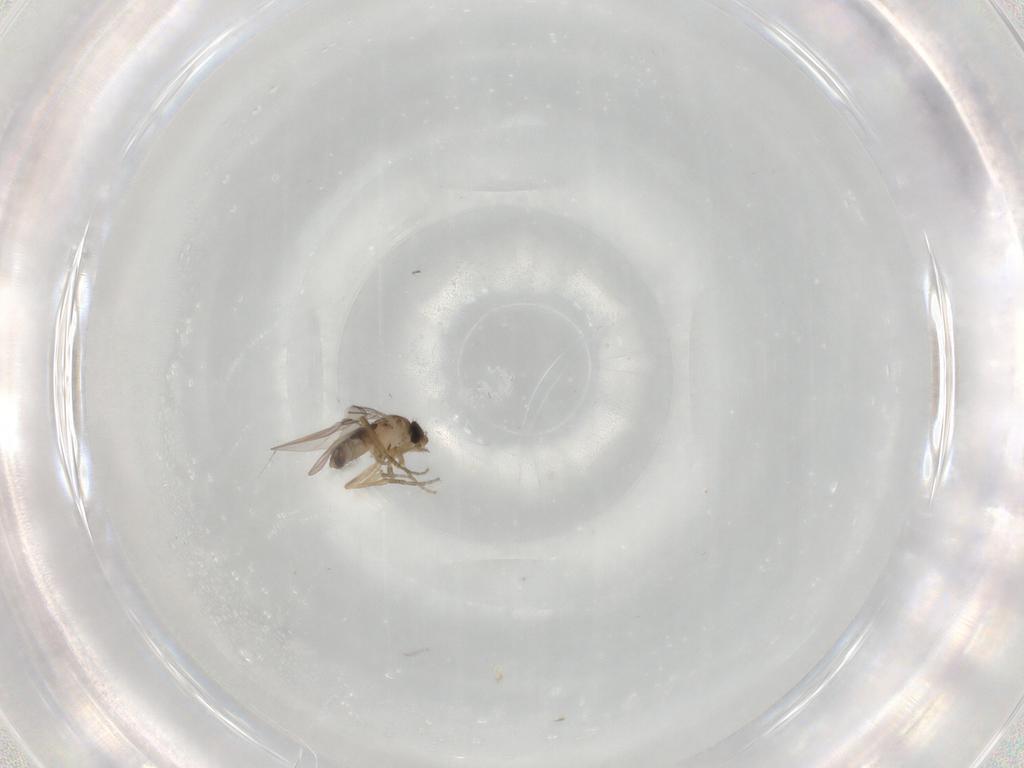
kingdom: Animalia
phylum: Arthropoda
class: Insecta
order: Diptera
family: Phoridae
